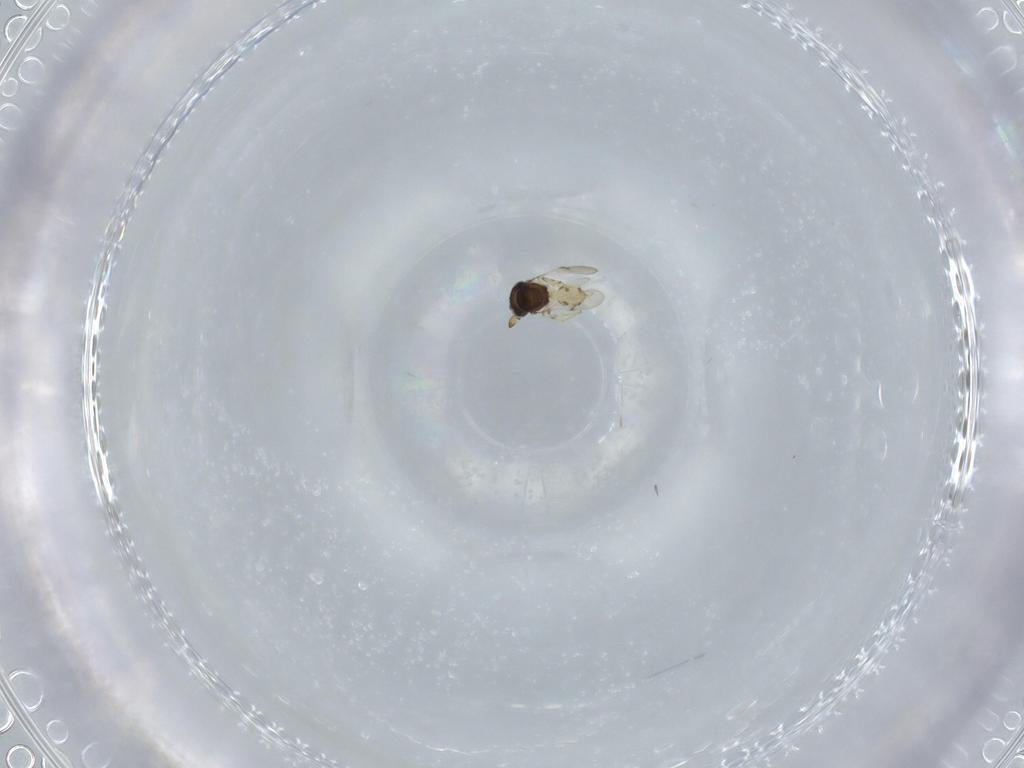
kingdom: Animalia
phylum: Arthropoda
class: Insecta
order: Hymenoptera
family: Scelionidae
